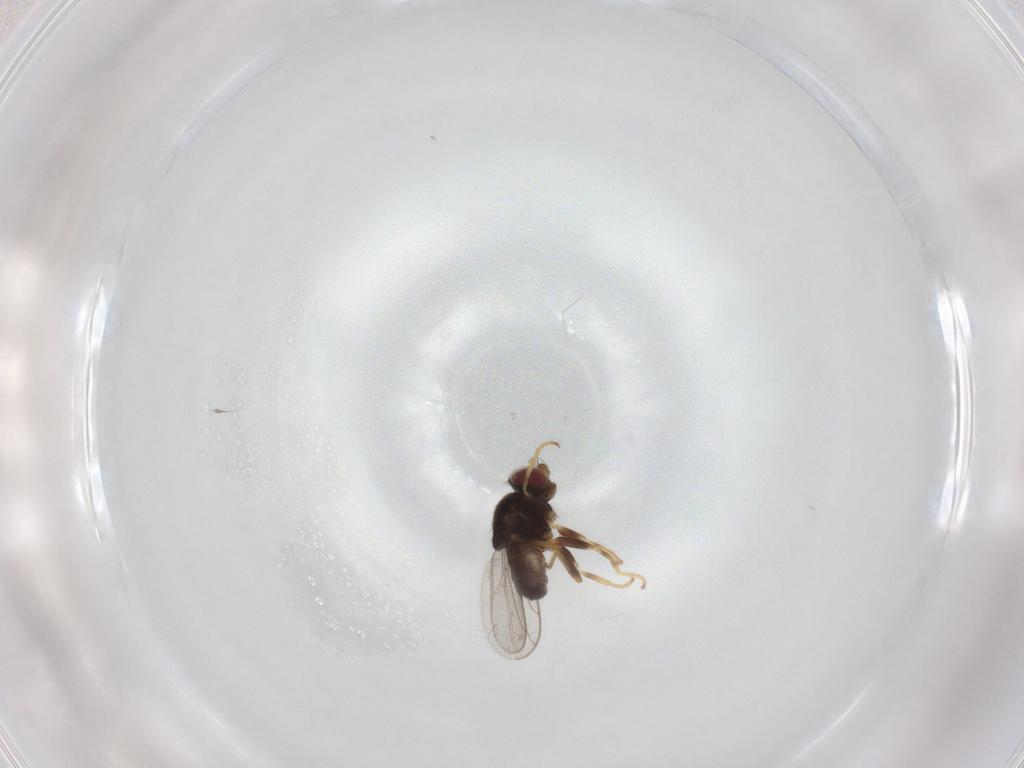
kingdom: Animalia
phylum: Arthropoda
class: Insecta
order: Diptera
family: Chloropidae
